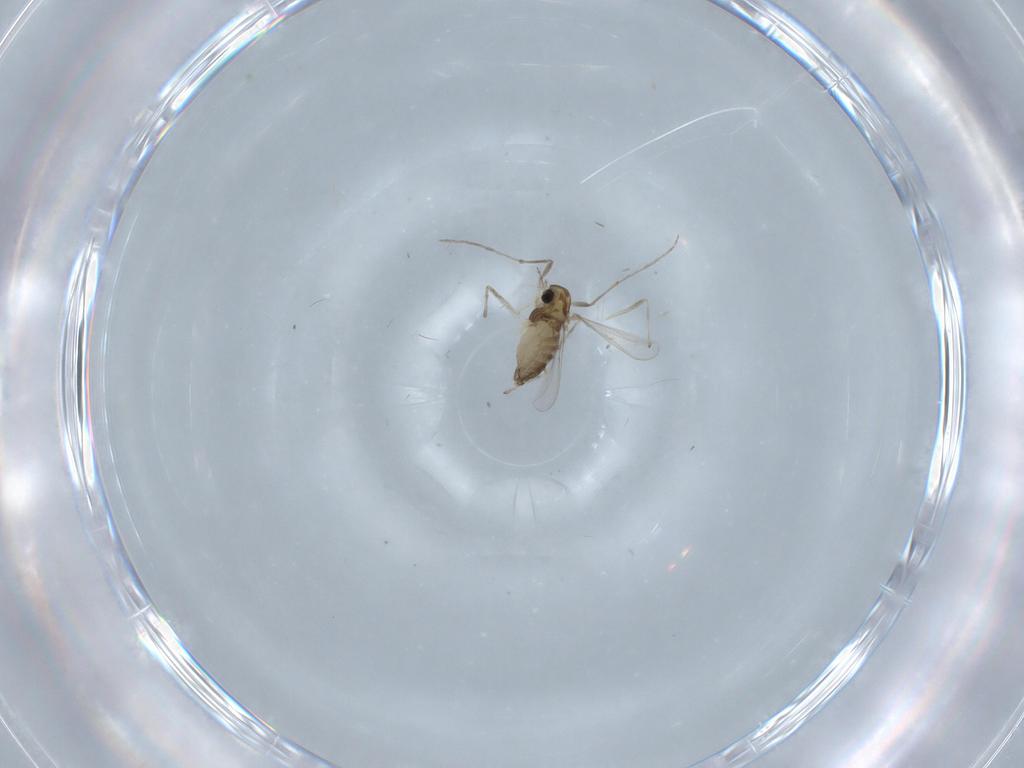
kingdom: Animalia
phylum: Arthropoda
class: Insecta
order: Diptera
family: Chironomidae
